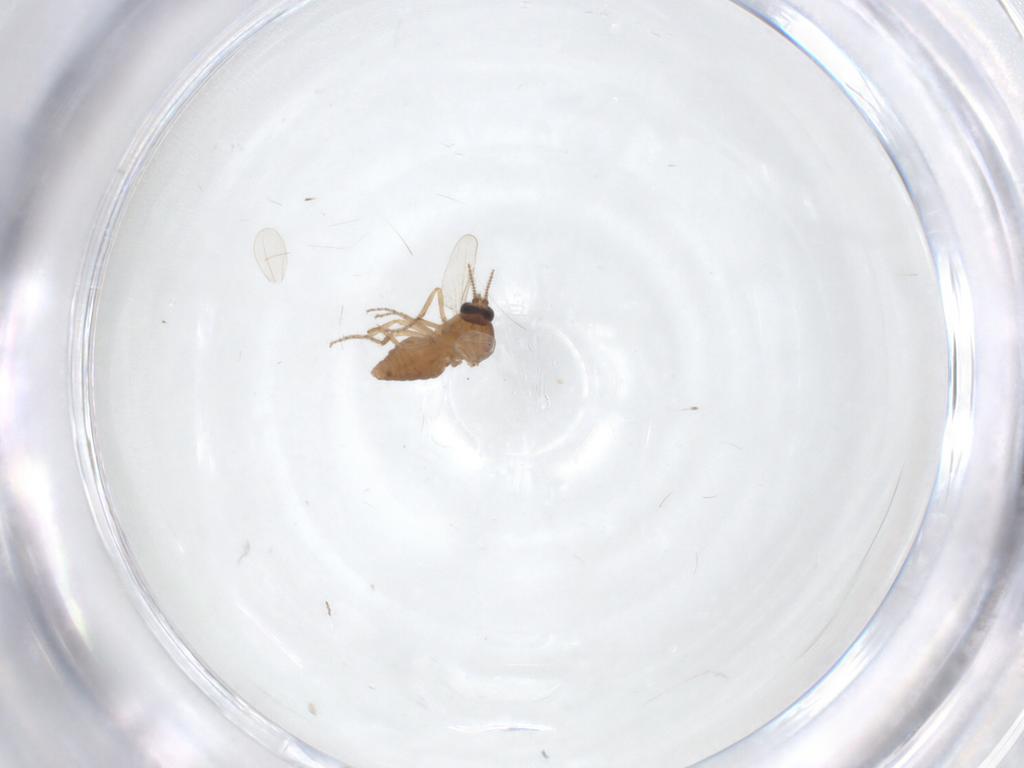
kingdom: Animalia
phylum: Arthropoda
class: Insecta
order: Diptera
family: Ceratopogonidae
